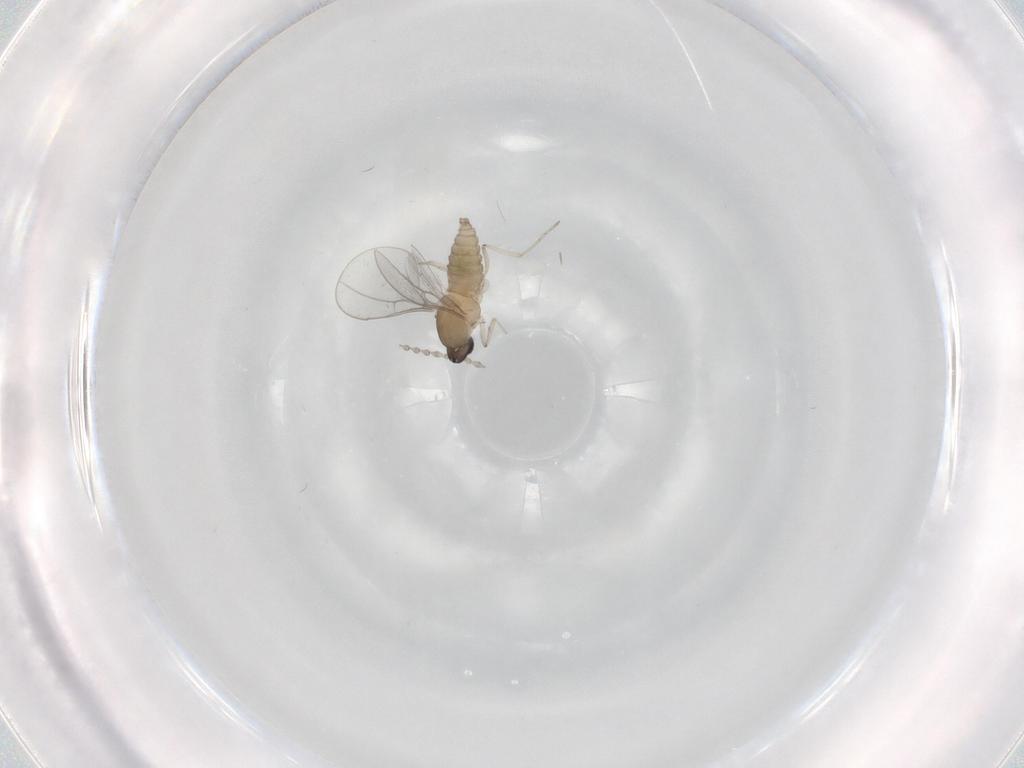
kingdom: Animalia
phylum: Arthropoda
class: Insecta
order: Diptera
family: Cecidomyiidae
